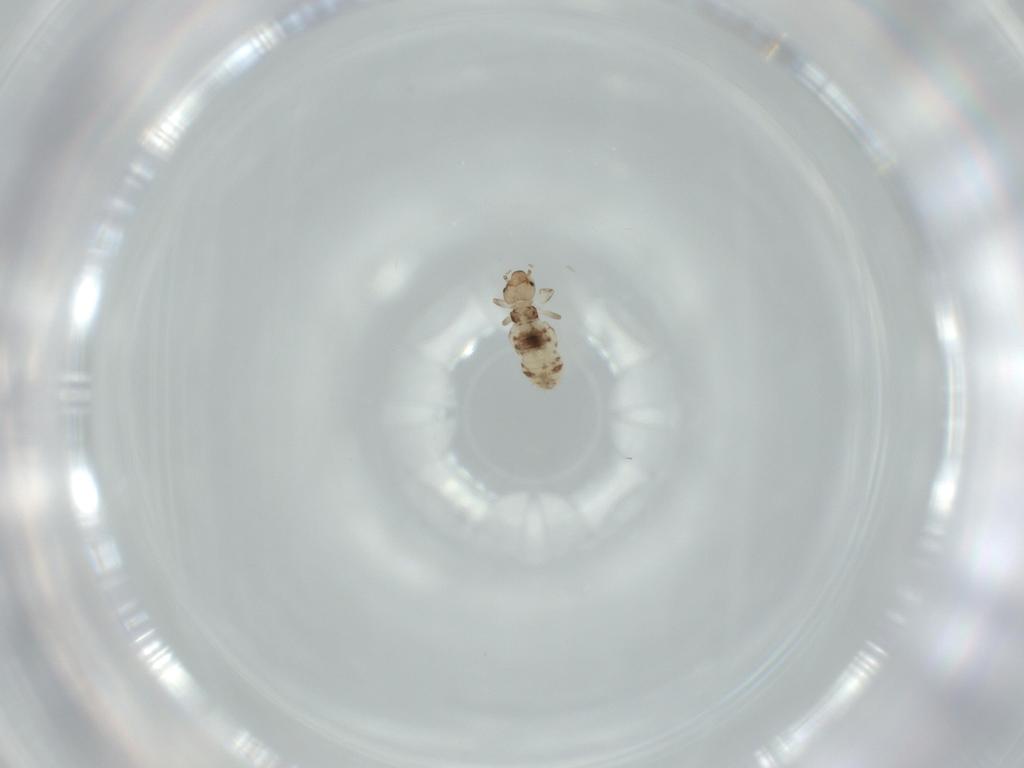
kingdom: Animalia
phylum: Arthropoda
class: Insecta
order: Psocodea
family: Liposcelididae
